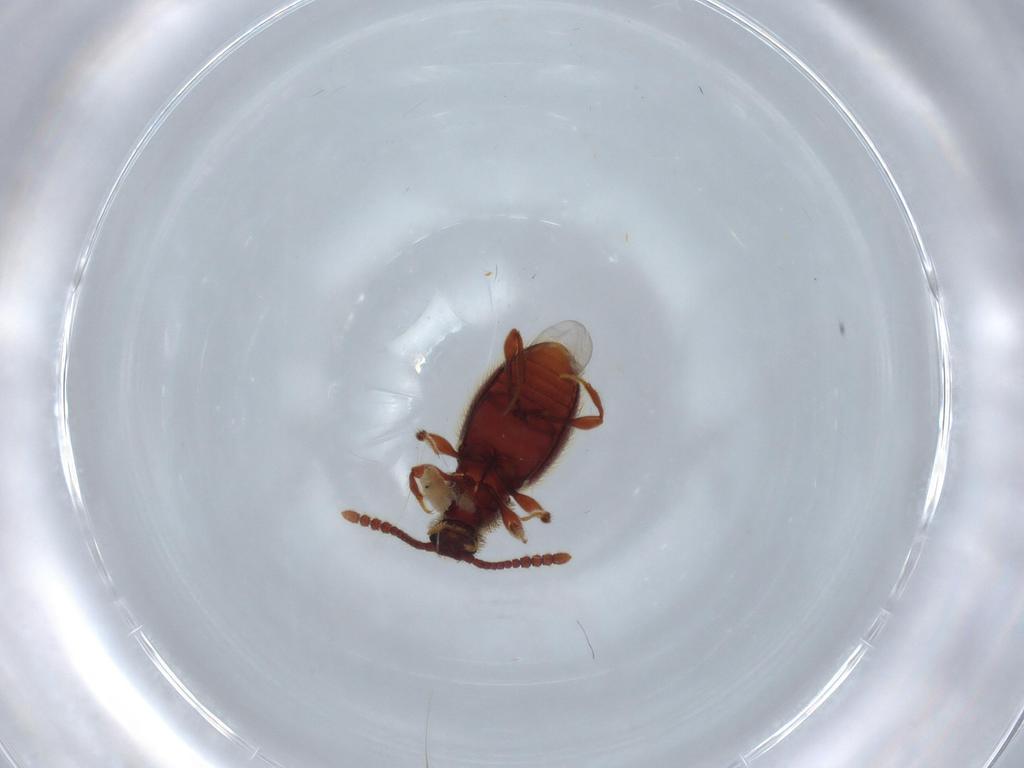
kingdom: Animalia
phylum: Arthropoda
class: Insecta
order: Coleoptera
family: Staphylinidae
